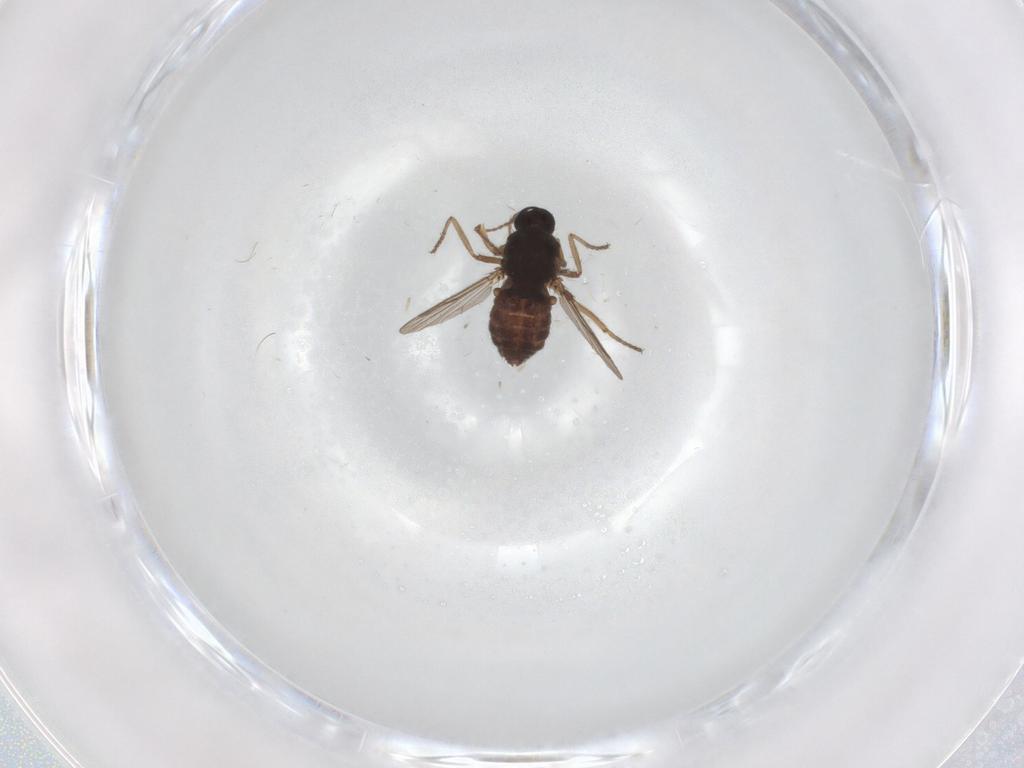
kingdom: Animalia
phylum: Arthropoda
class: Insecta
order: Diptera
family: Ceratopogonidae
